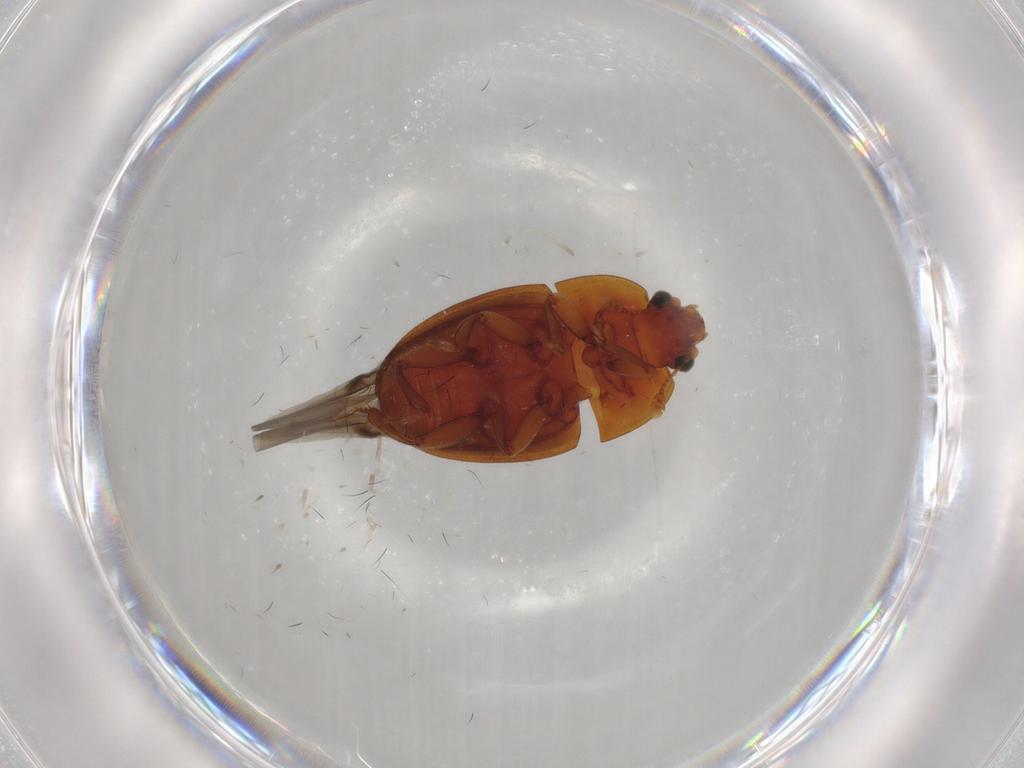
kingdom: Animalia
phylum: Arthropoda
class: Insecta
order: Coleoptera
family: Nitidulidae
